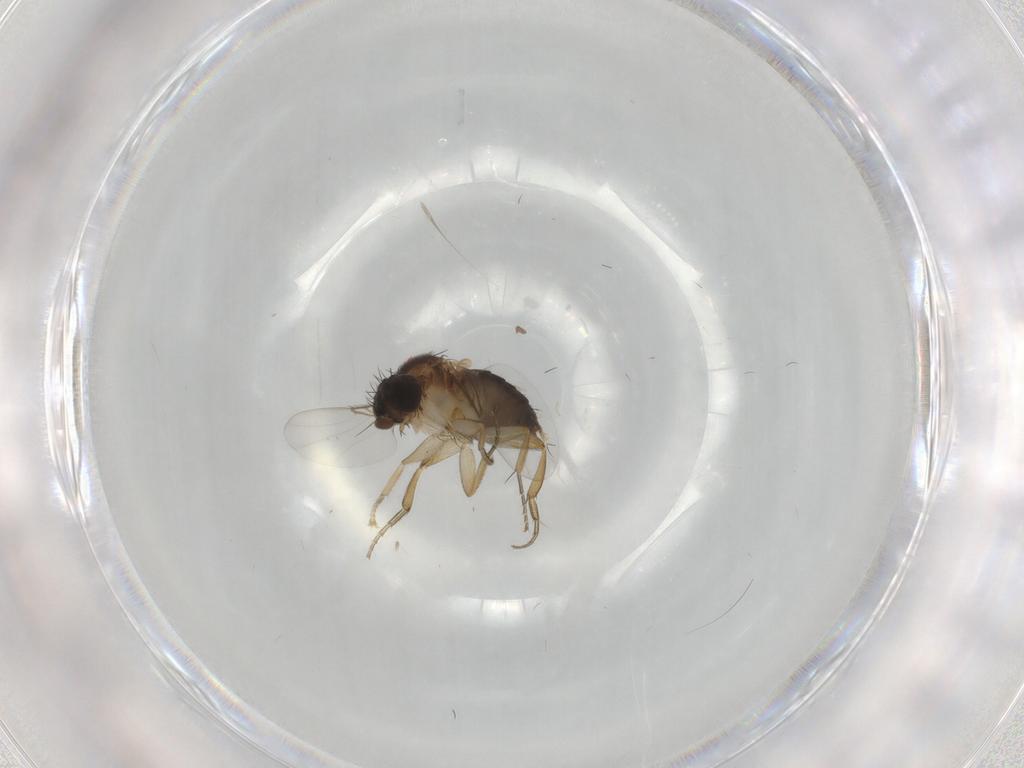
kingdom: Animalia
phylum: Arthropoda
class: Insecta
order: Diptera
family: Phoridae
